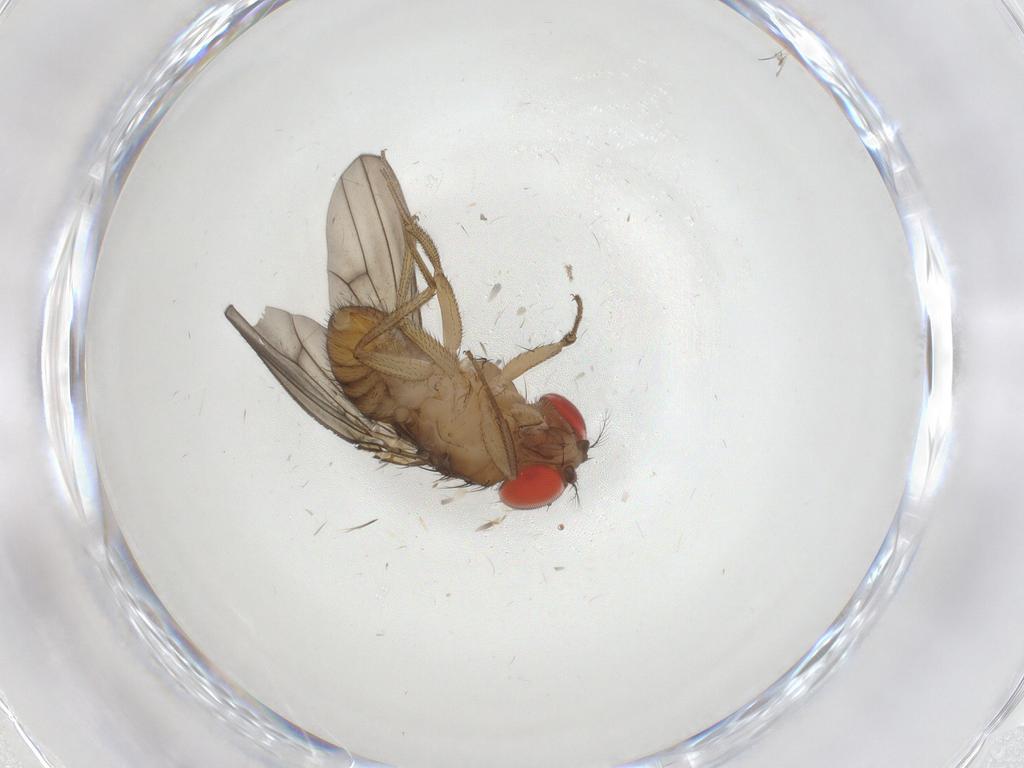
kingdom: Animalia
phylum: Arthropoda
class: Insecta
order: Diptera
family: Drosophilidae
